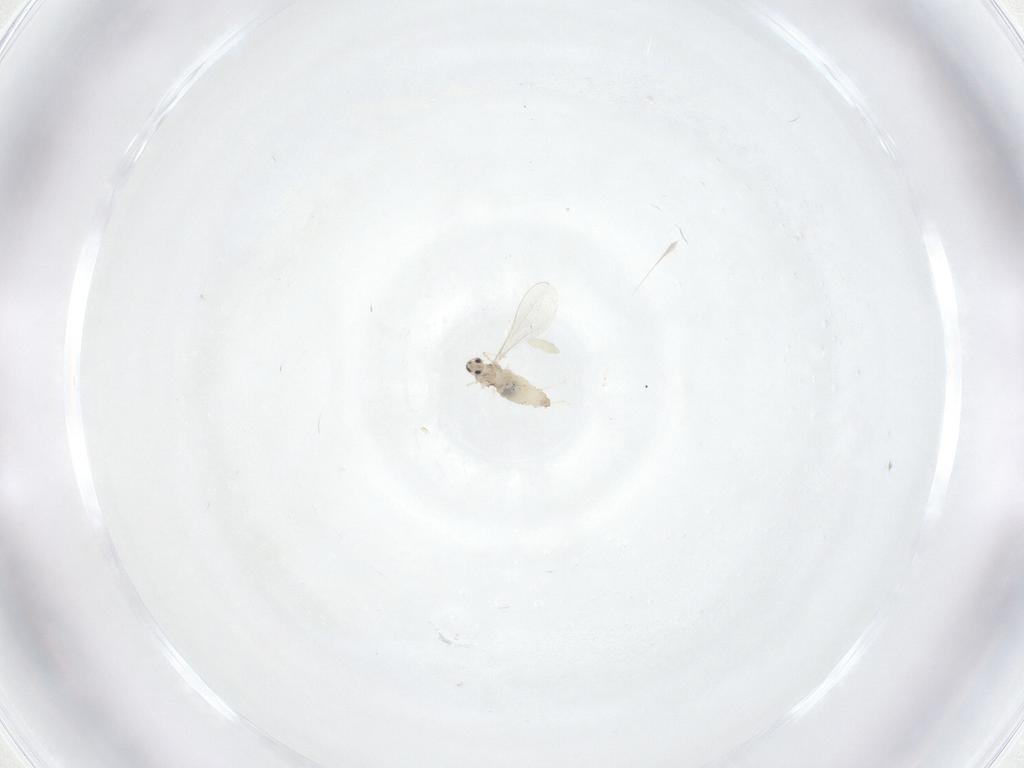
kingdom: Animalia
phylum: Arthropoda
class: Insecta
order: Diptera
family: Cecidomyiidae
